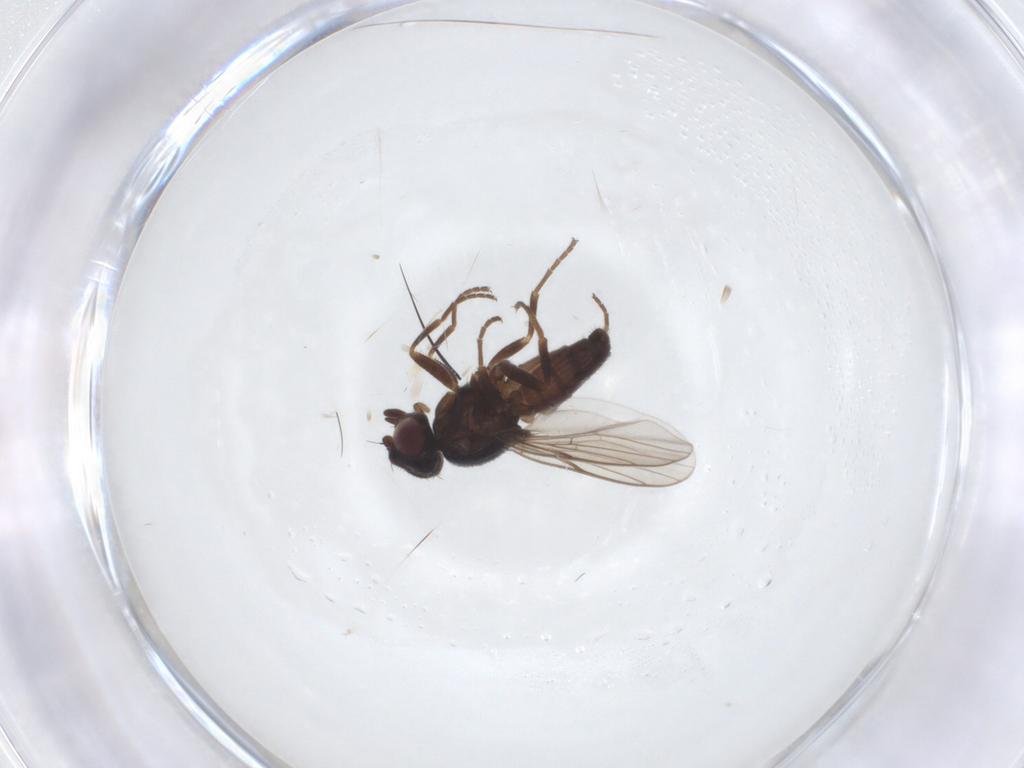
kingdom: Animalia
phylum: Arthropoda
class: Insecta
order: Diptera
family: Chloropidae
